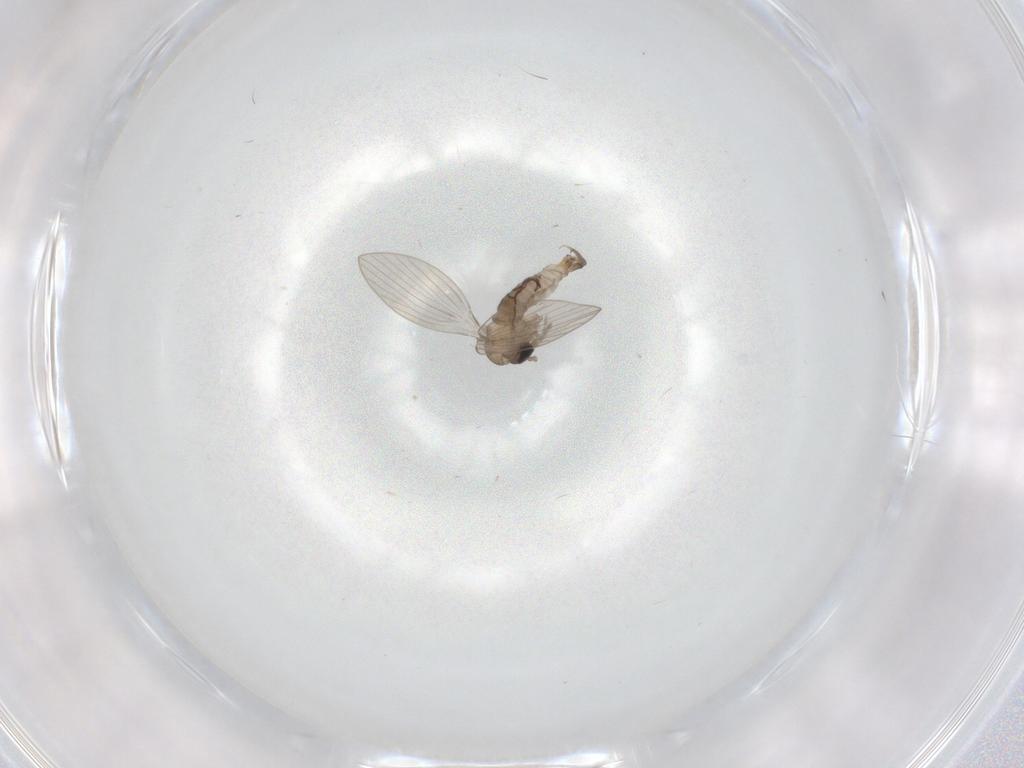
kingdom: Animalia
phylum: Arthropoda
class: Insecta
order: Diptera
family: Psychodidae
